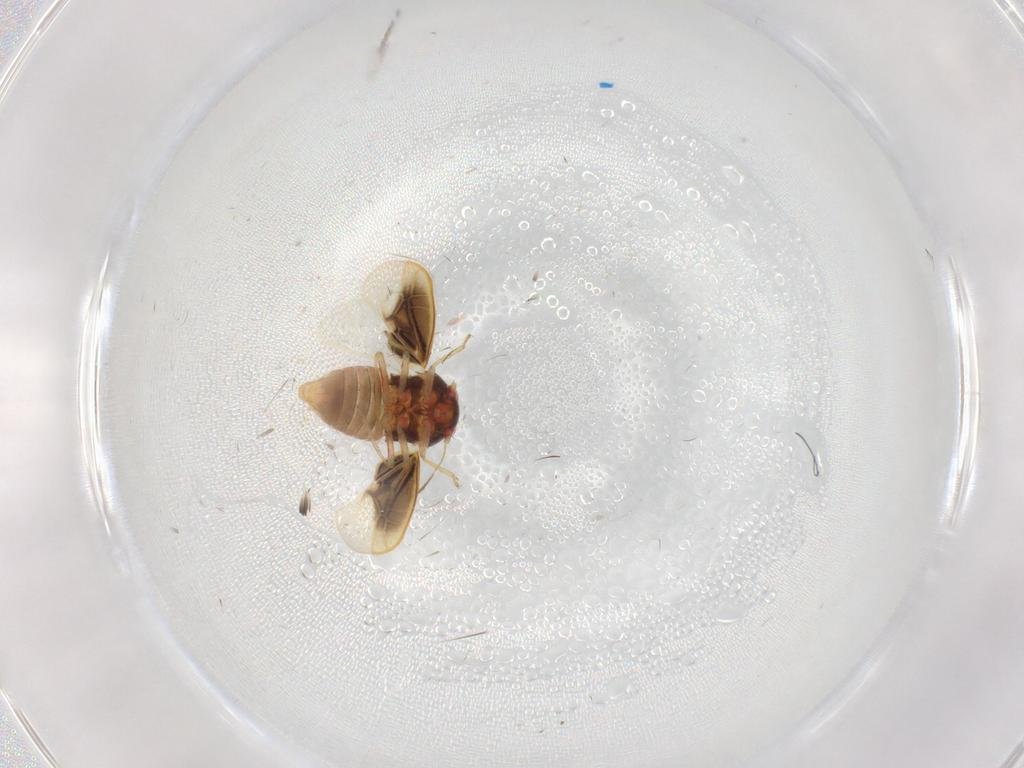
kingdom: Animalia
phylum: Arthropoda
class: Insecta
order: Hemiptera
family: Schizopteridae
